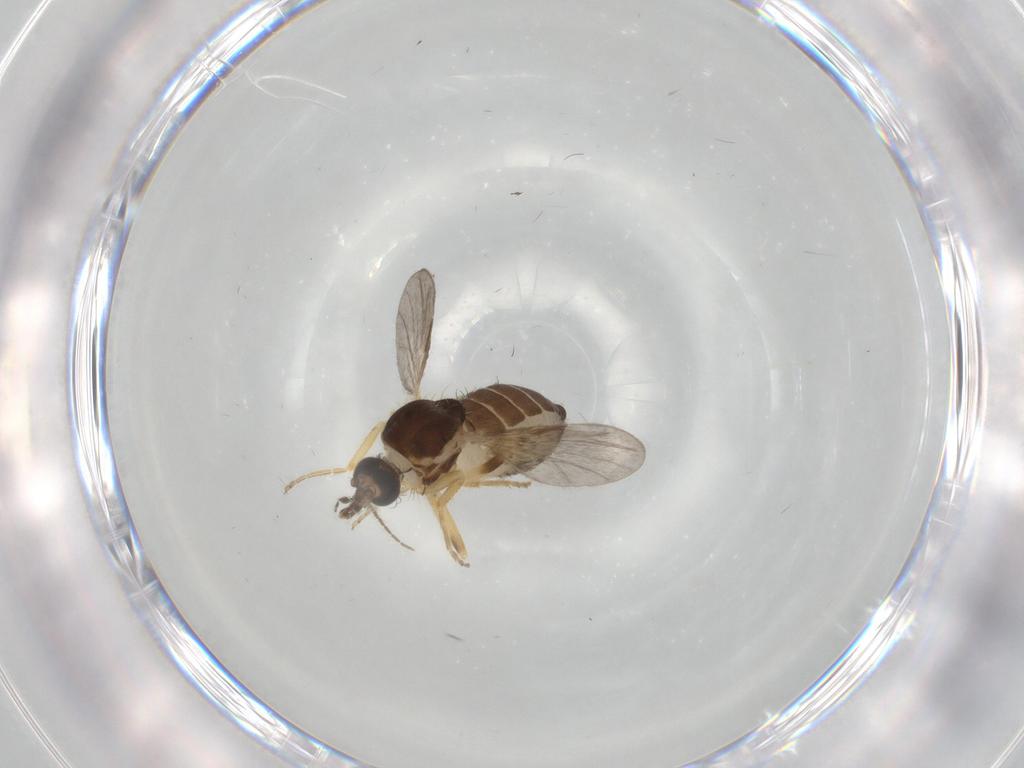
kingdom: Animalia
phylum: Arthropoda
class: Insecta
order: Diptera
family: Ceratopogonidae
